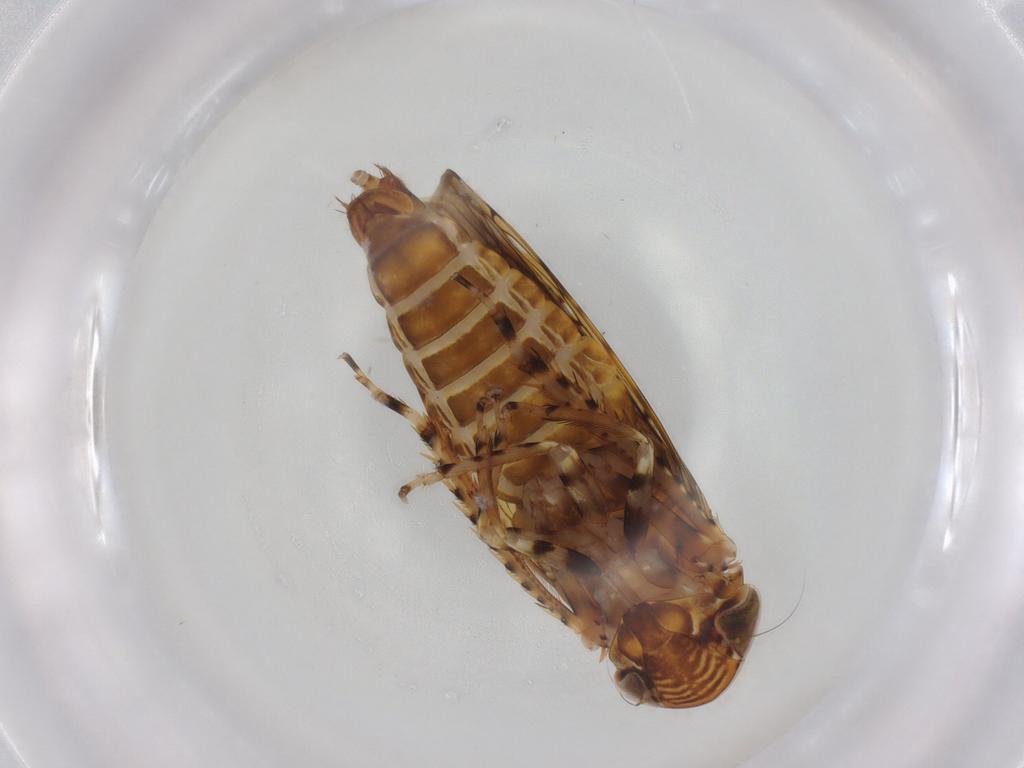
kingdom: Animalia
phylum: Arthropoda
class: Insecta
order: Hemiptera
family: Cicadellidae
